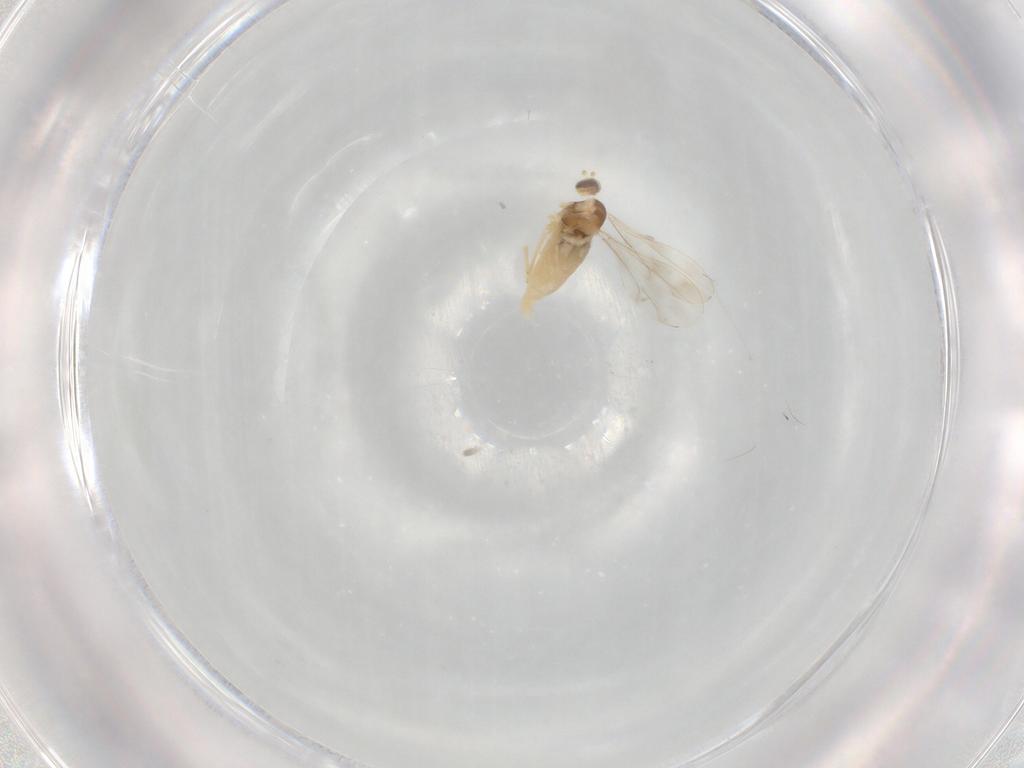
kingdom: Animalia
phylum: Arthropoda
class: Insecta
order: Diptera
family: Cecidomyiidae
